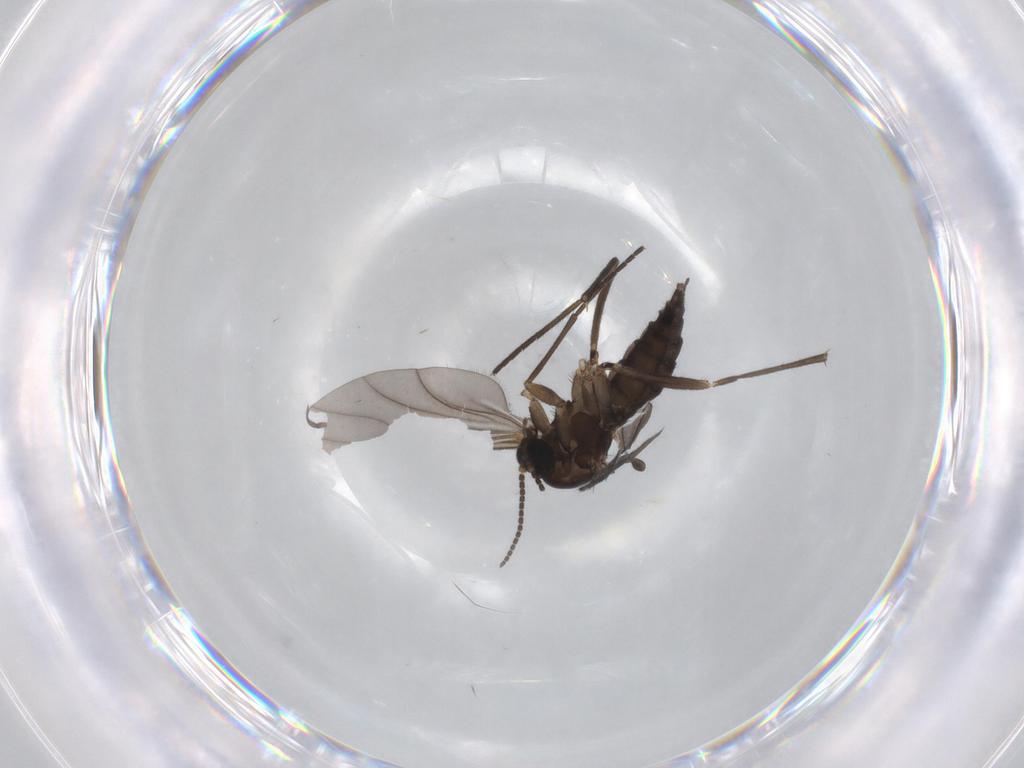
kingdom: Animalia
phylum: Arthropoda
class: Insecta
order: Diptera
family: Sciaridae
